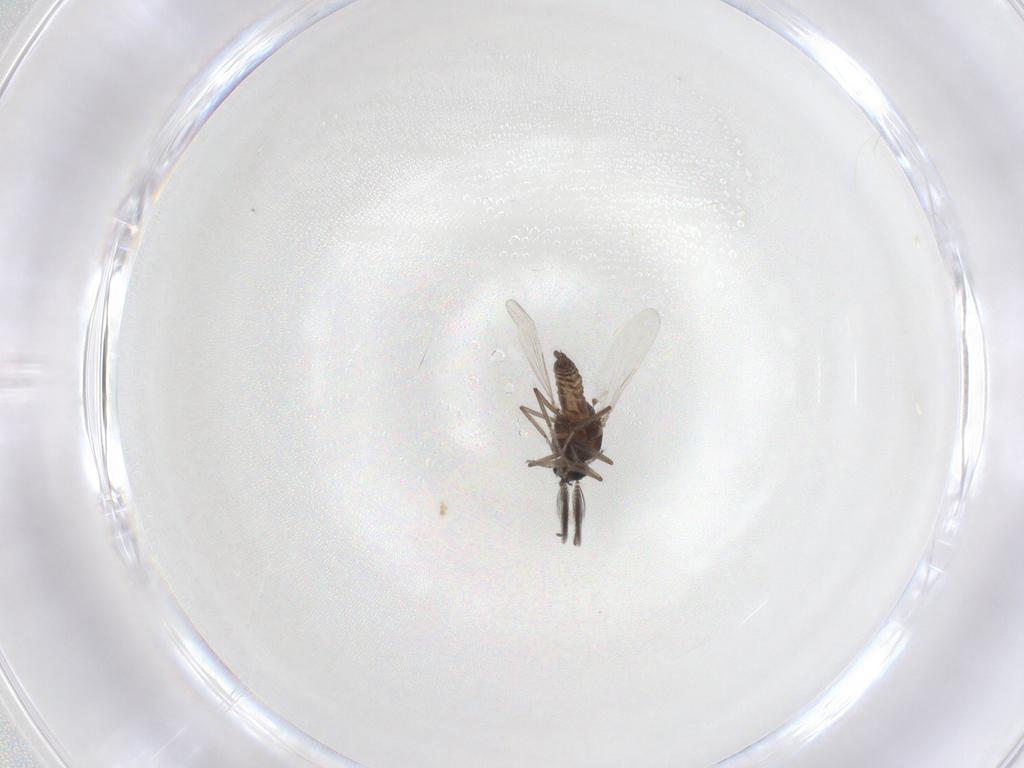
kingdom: Animalia
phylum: Arthropoda
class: Insecta
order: Diptera
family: Ceratopogonidae
